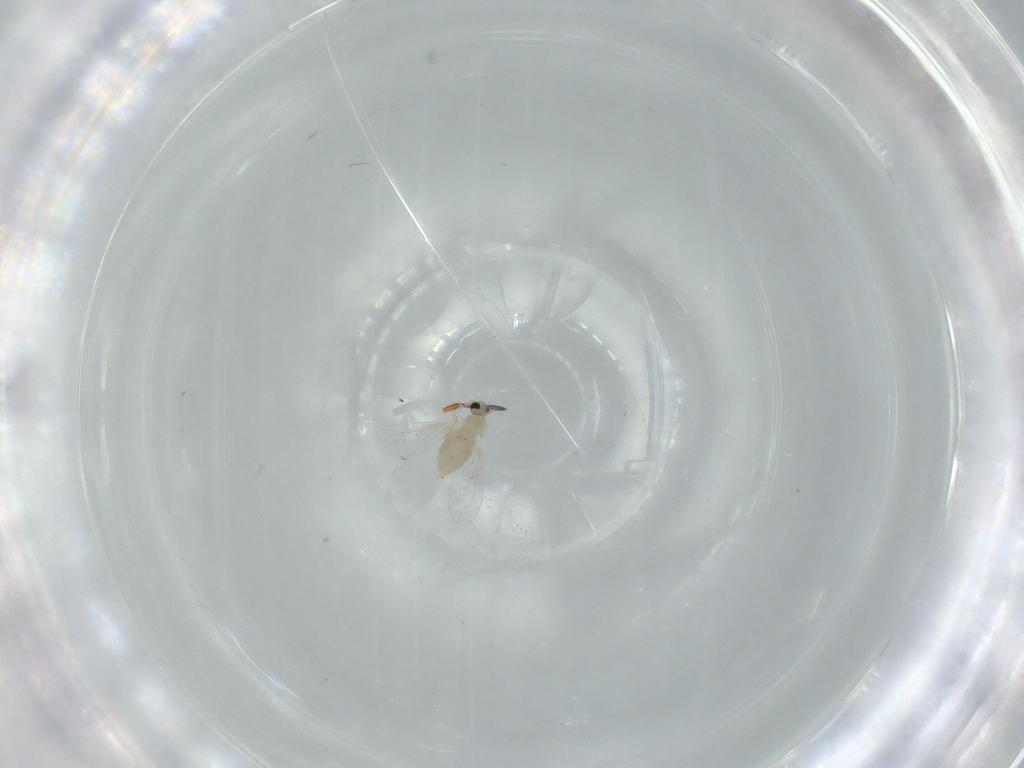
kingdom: Animalia
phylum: Arthropoda
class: Insecta
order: Diptera
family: Cecidomyiidae
